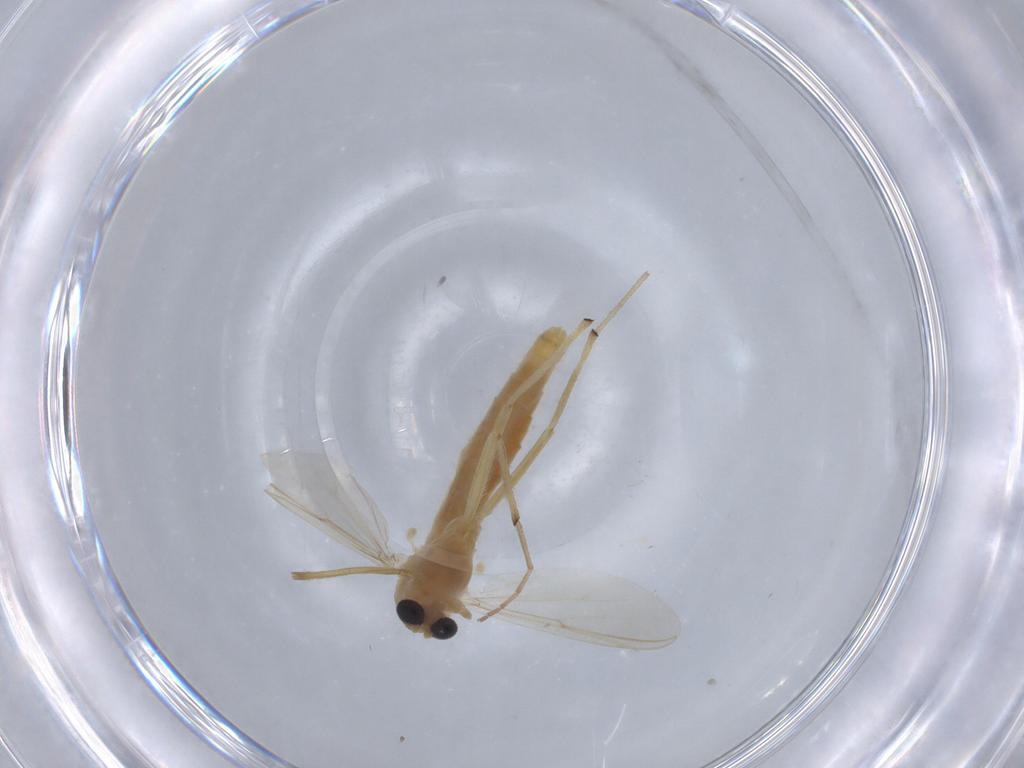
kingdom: Animalia
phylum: Arthropoda
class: Insecta
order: Diptera
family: Chironomidae
